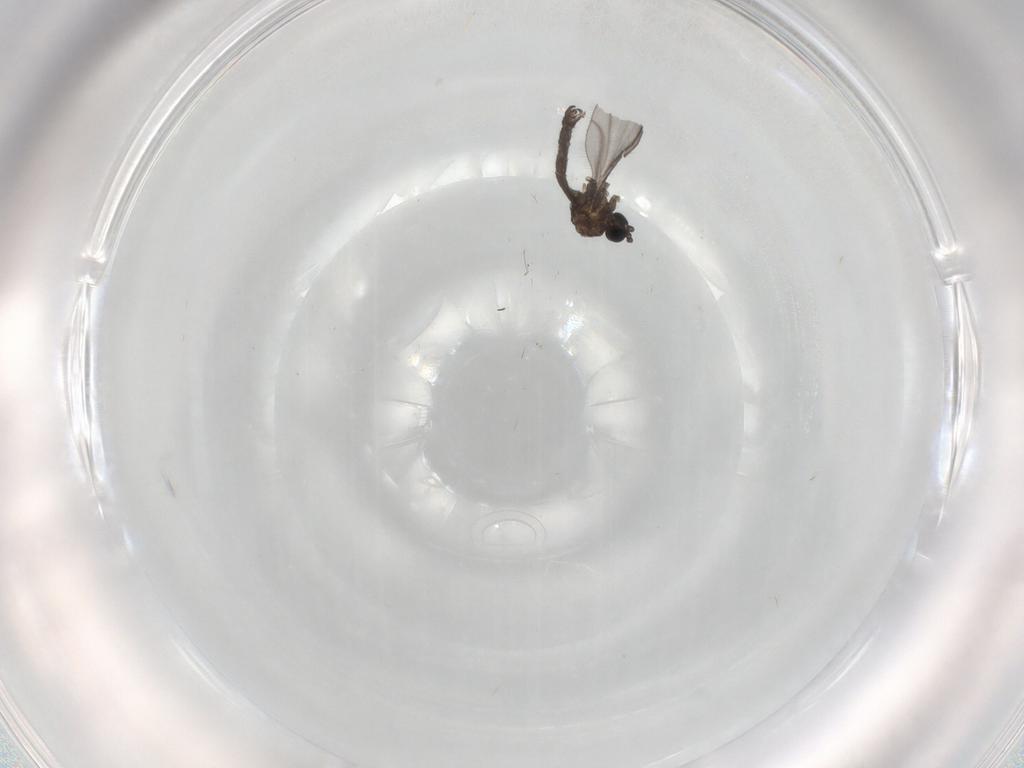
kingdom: Animalia
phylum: Arthropoda
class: Insecta
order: Diptera
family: Sciaridae
